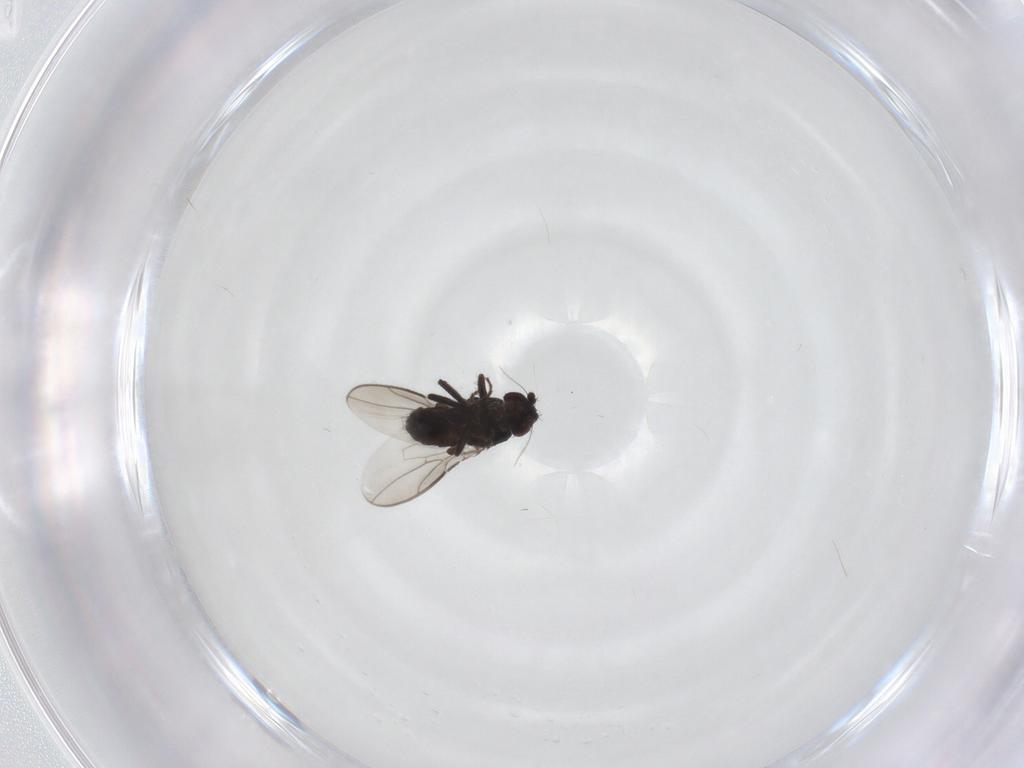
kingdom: Animalia
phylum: Arthropoda
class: Insecta
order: Diptera
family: Sphaeroceridae
